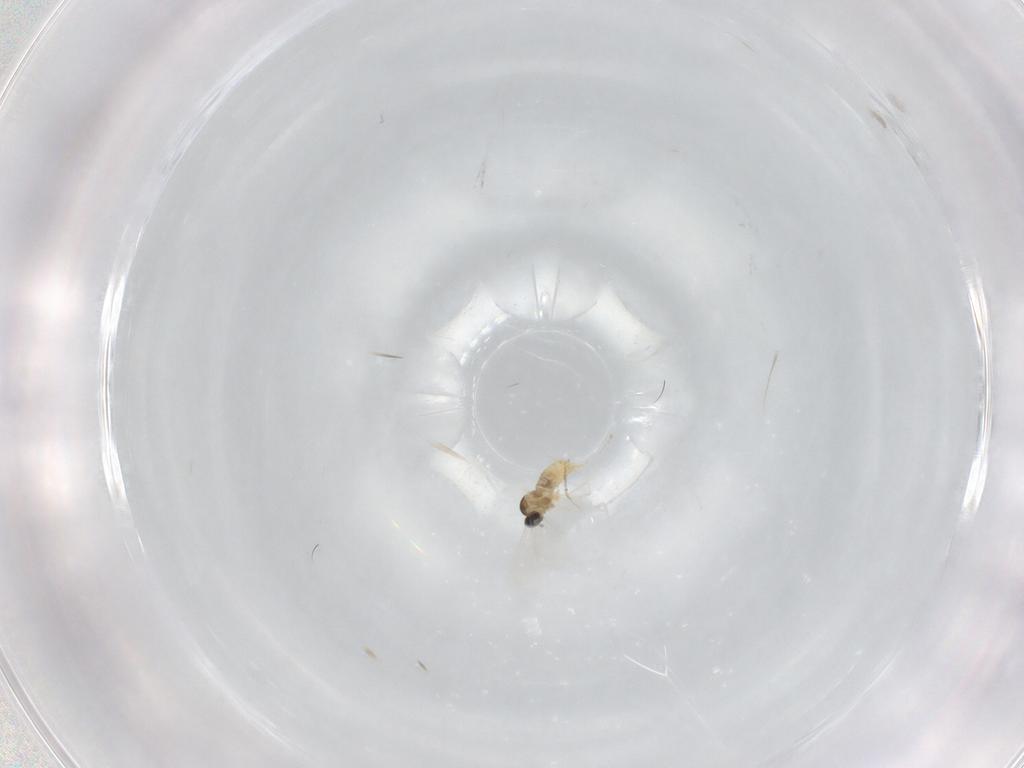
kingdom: Animalia
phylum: Arthropoda
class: Insecta
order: Diptera
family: Cecidomyiidae
